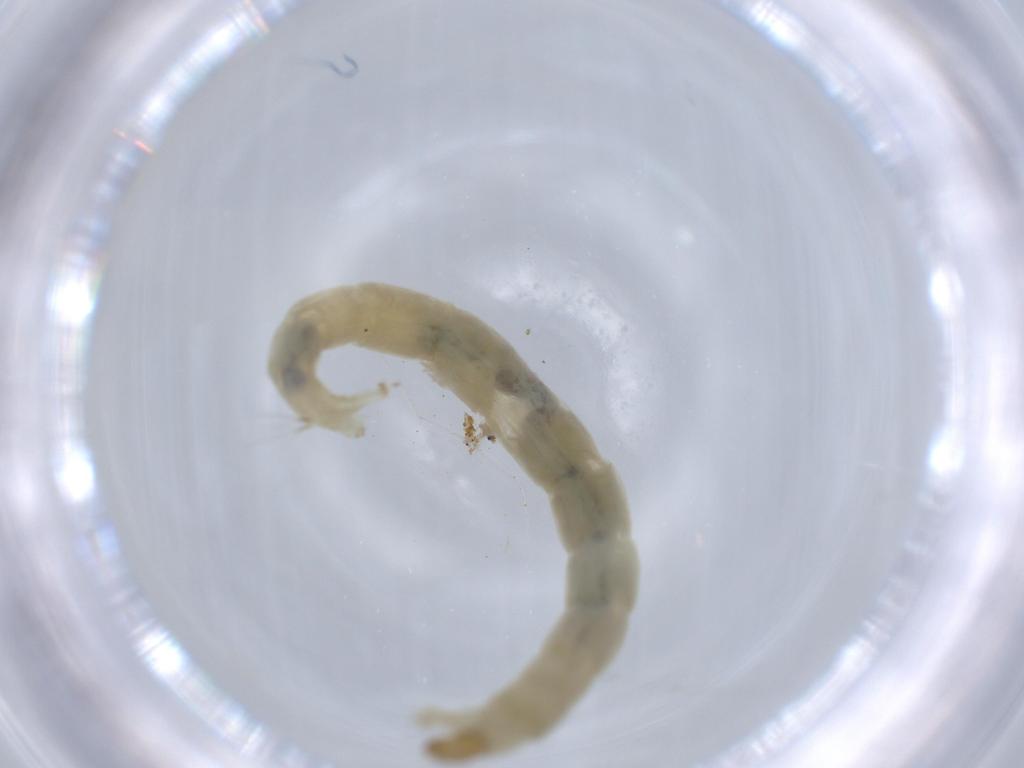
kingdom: Animalia
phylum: Arthropoda
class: Insecta
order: Diptera
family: Chironomidae
